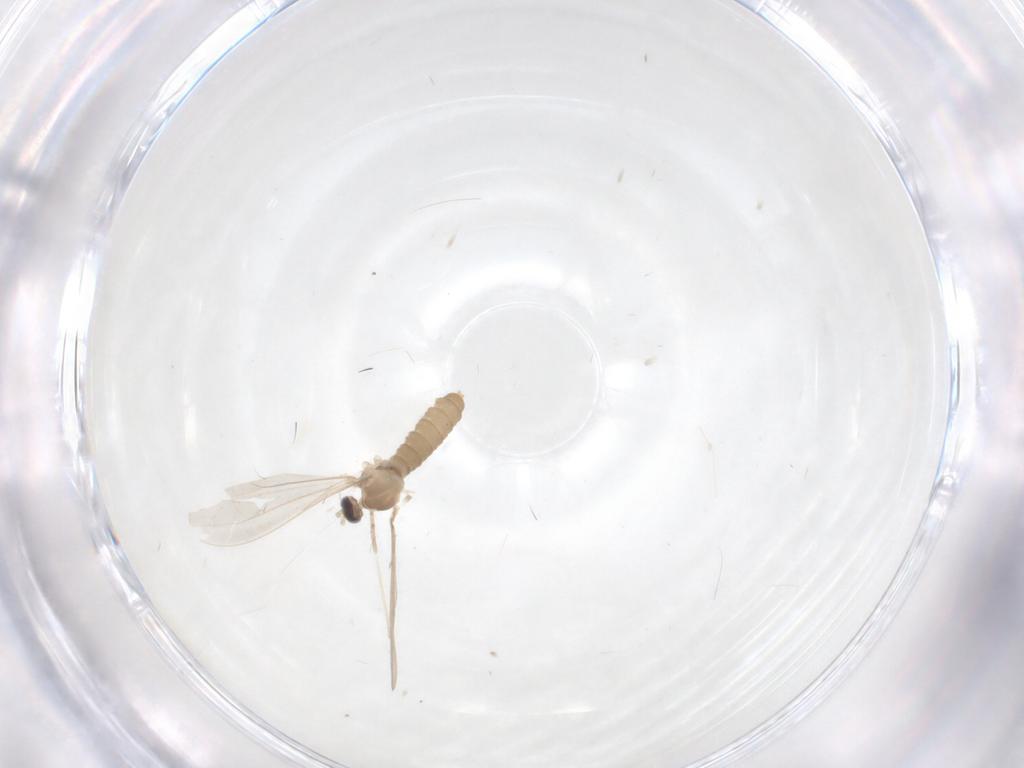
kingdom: Animalia
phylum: Arthropoda
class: Insecta
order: Diptera
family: Cecidomyiidae
